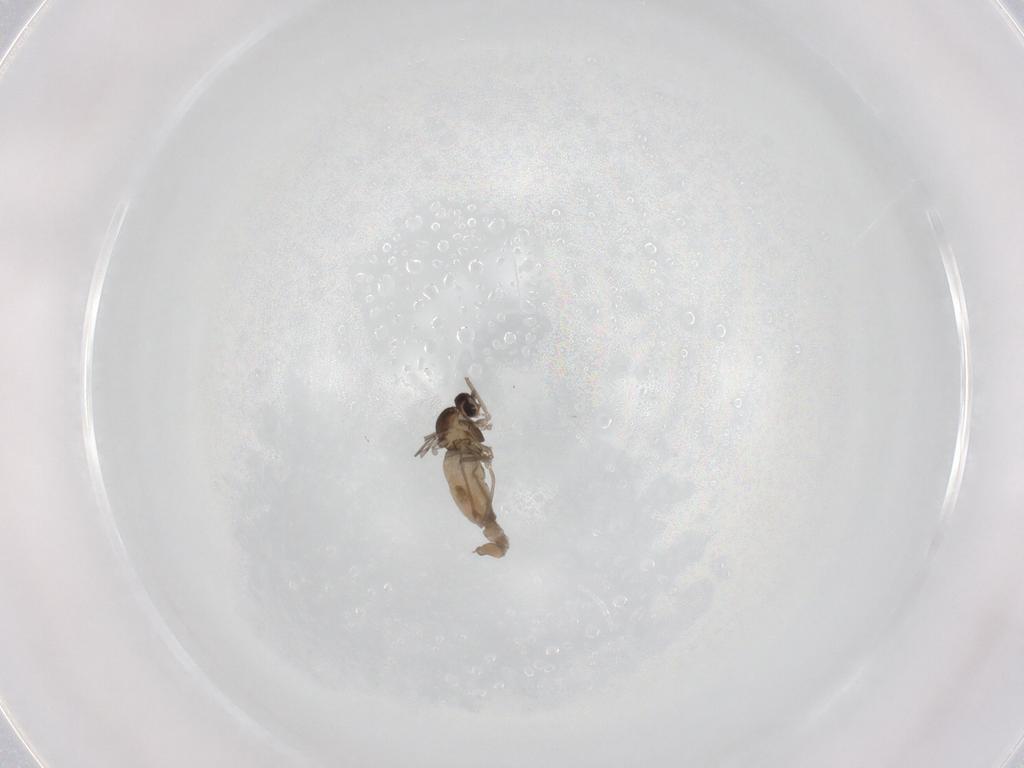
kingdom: Animalia
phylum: Arthropoda
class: Insecta
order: Diptera
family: Cecidomyiidae
